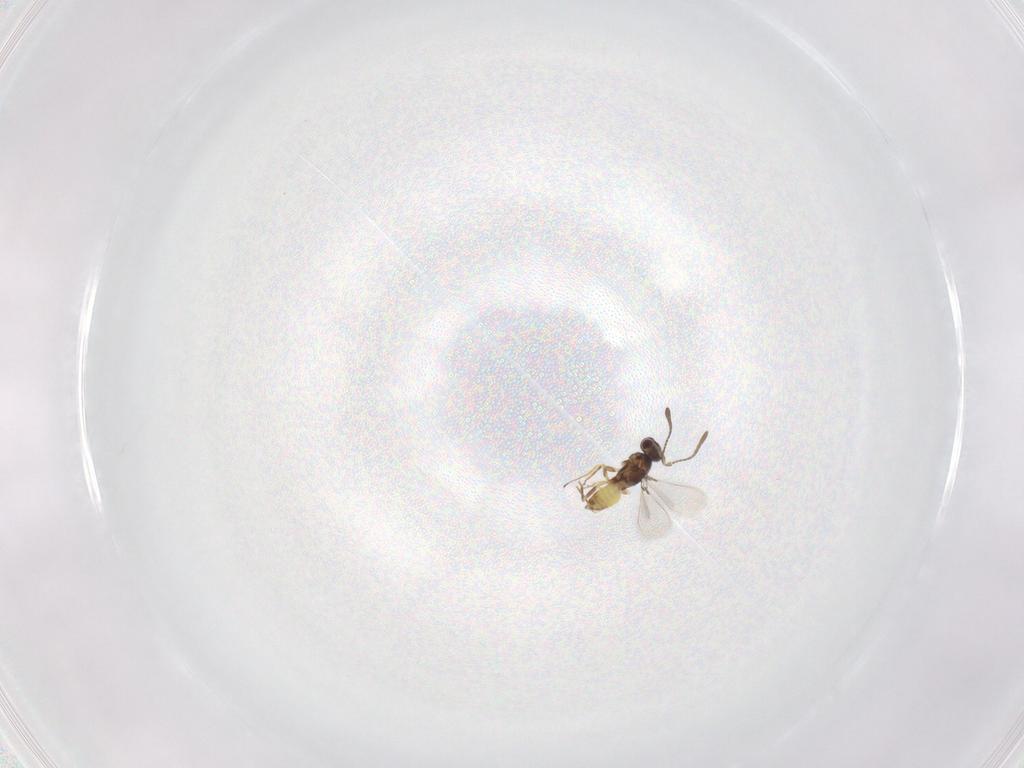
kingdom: Animalia
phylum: Arthropoda
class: Insecta
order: Hymenoptera
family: Mymaridae
